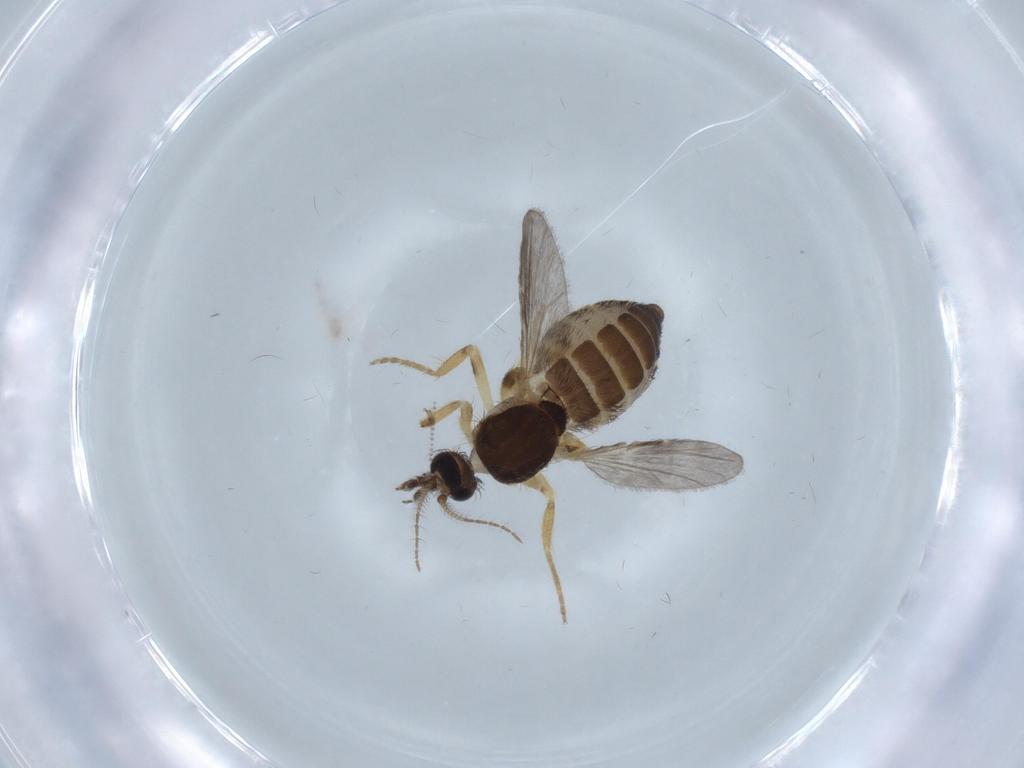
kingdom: Animalia
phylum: Arthropoda
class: Insecta
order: Diptera
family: Ceratopogonidae
